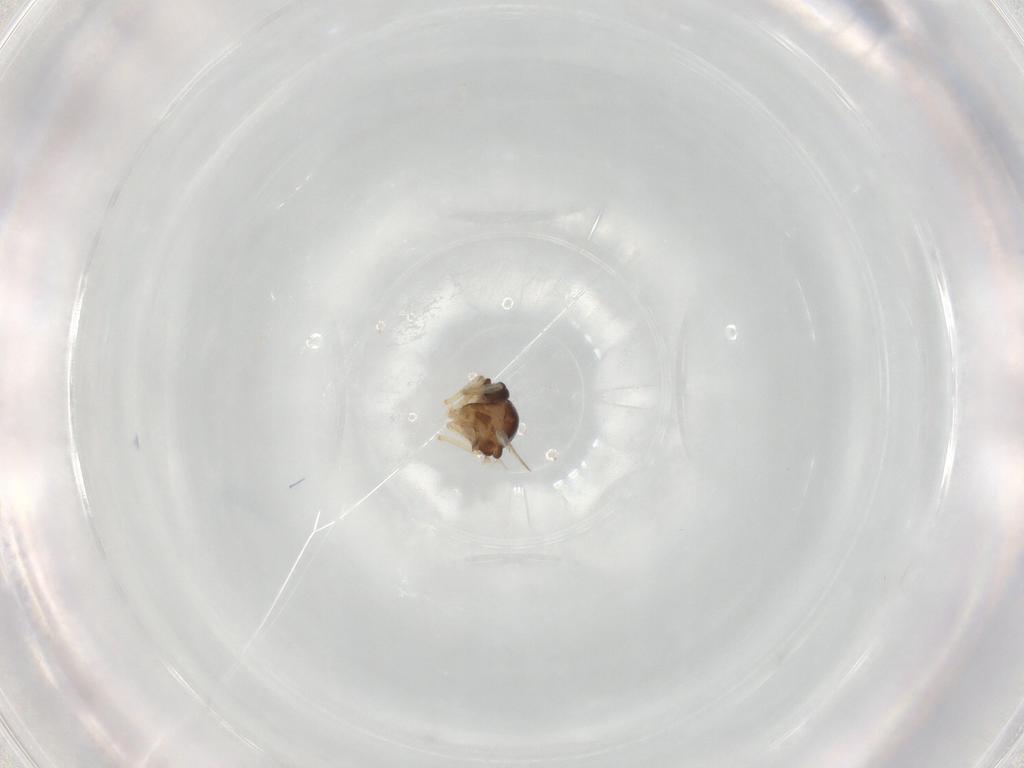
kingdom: Animalia
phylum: Arthropoda
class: Insecta
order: Diptera
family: Ceratopogonidae
